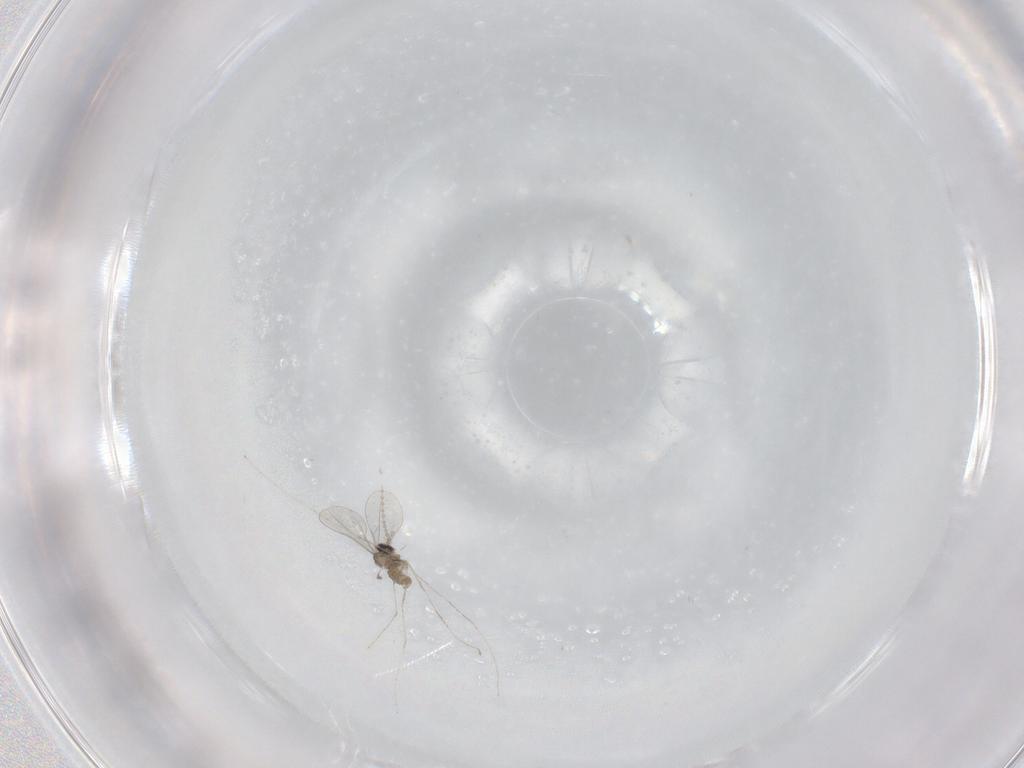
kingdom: Animalia
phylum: Arthropoda
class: Insecta
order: Diptera
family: Cecidomyiidae
